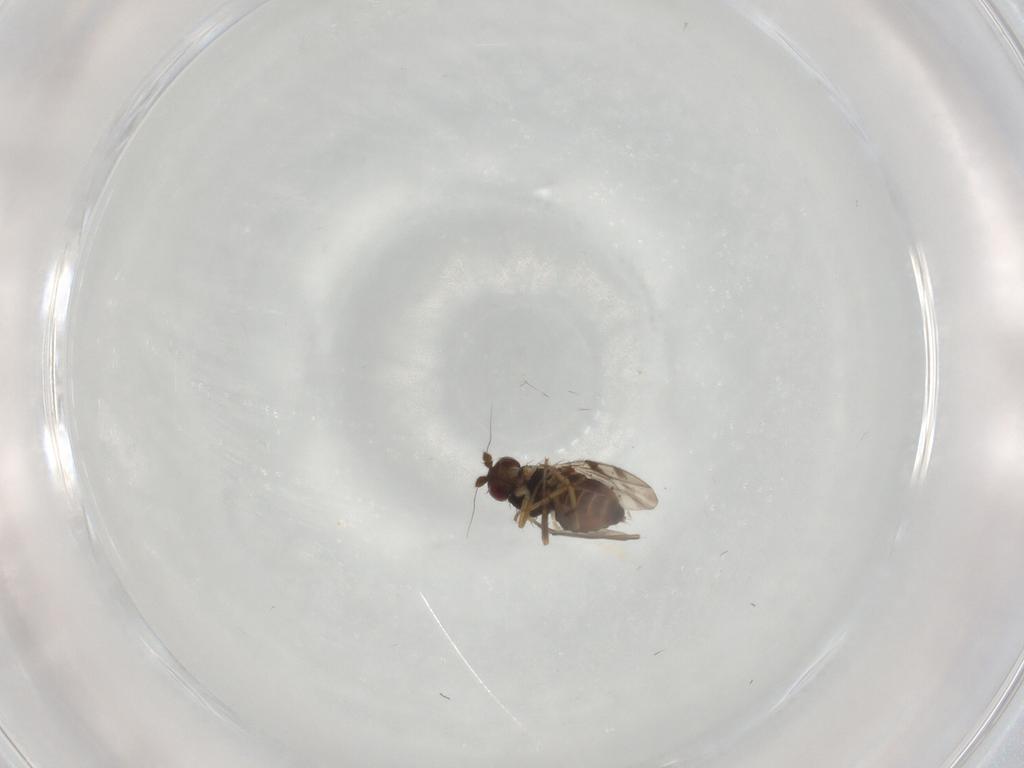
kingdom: Animalia
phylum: Arthropoda
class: Insecta
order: Diptera
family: Sphaeroceridae
